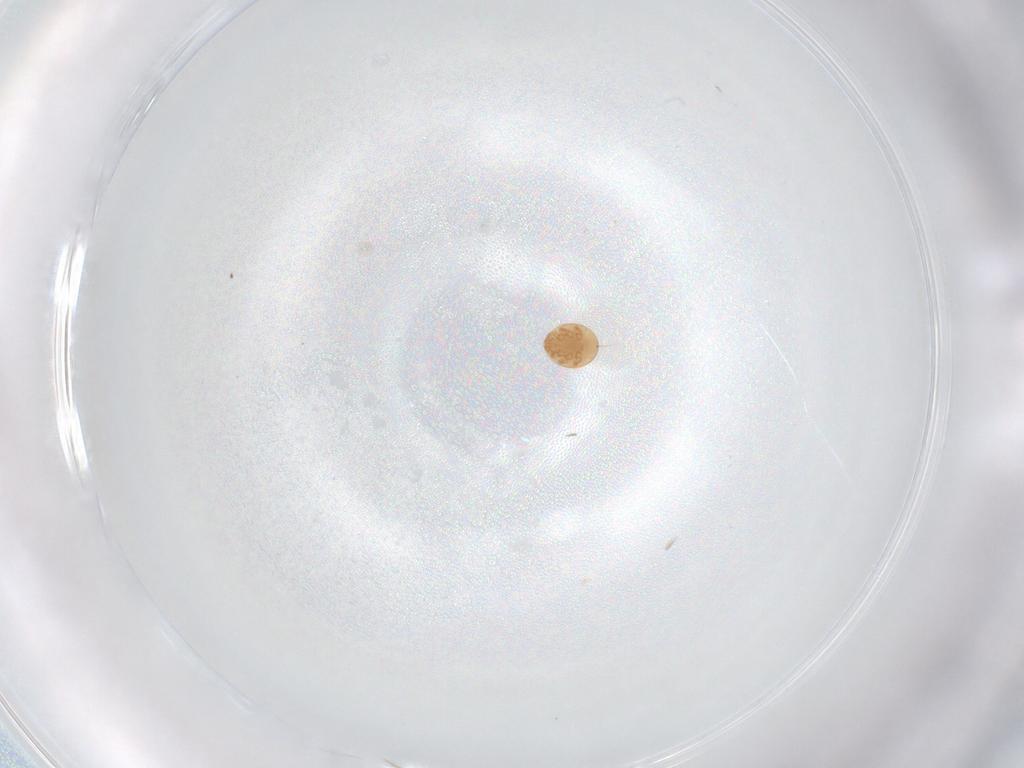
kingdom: Animalia
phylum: Arthropoda
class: Arachnida
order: Mesostigmata
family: Trematuridae
